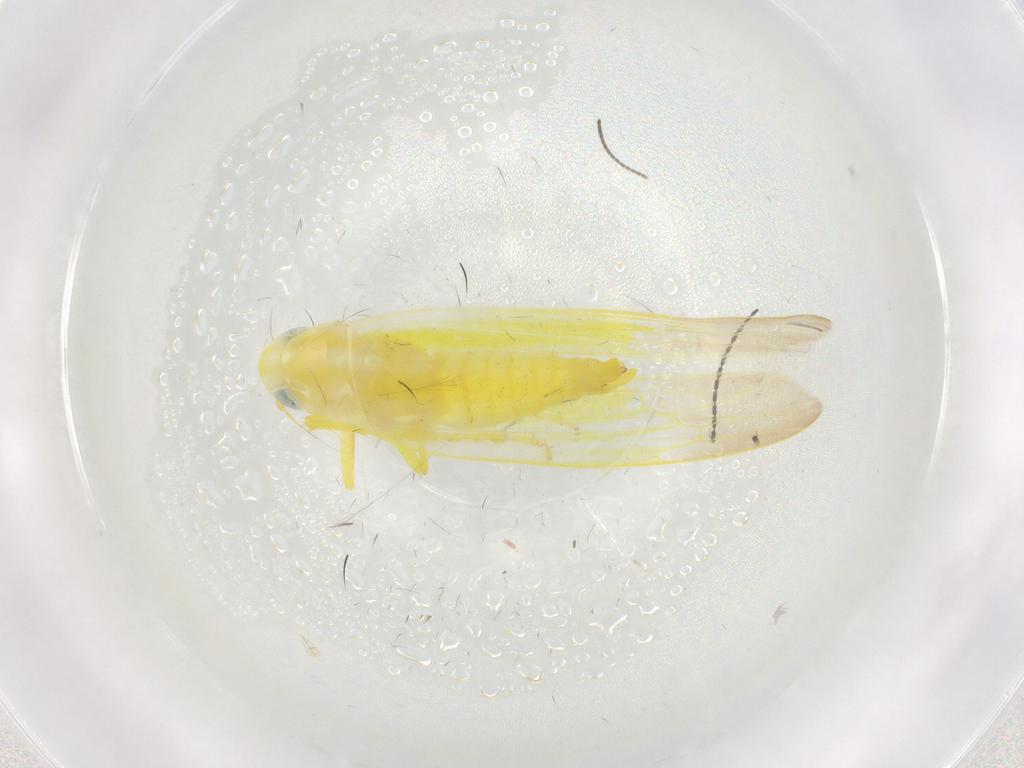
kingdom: Animalia
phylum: Arthropoda
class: Insecta
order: Hemiptera
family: Cicadellidae
